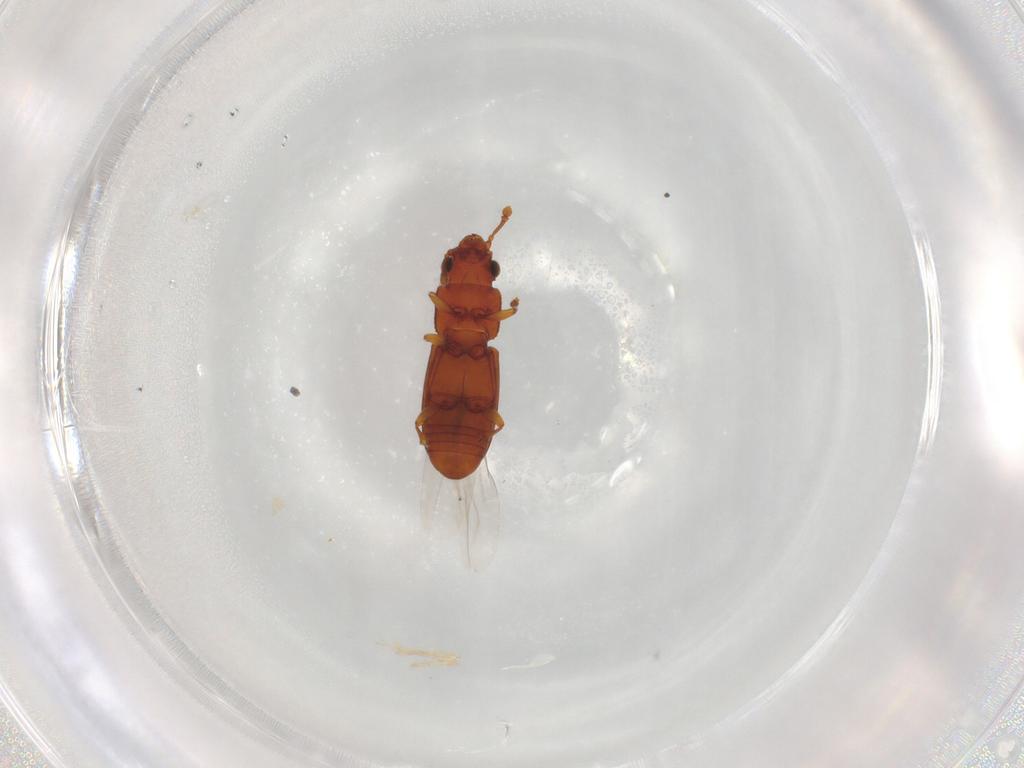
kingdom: Animalia
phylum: Arthropoda
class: Insecta
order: Coleoptera
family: Monotomidae
